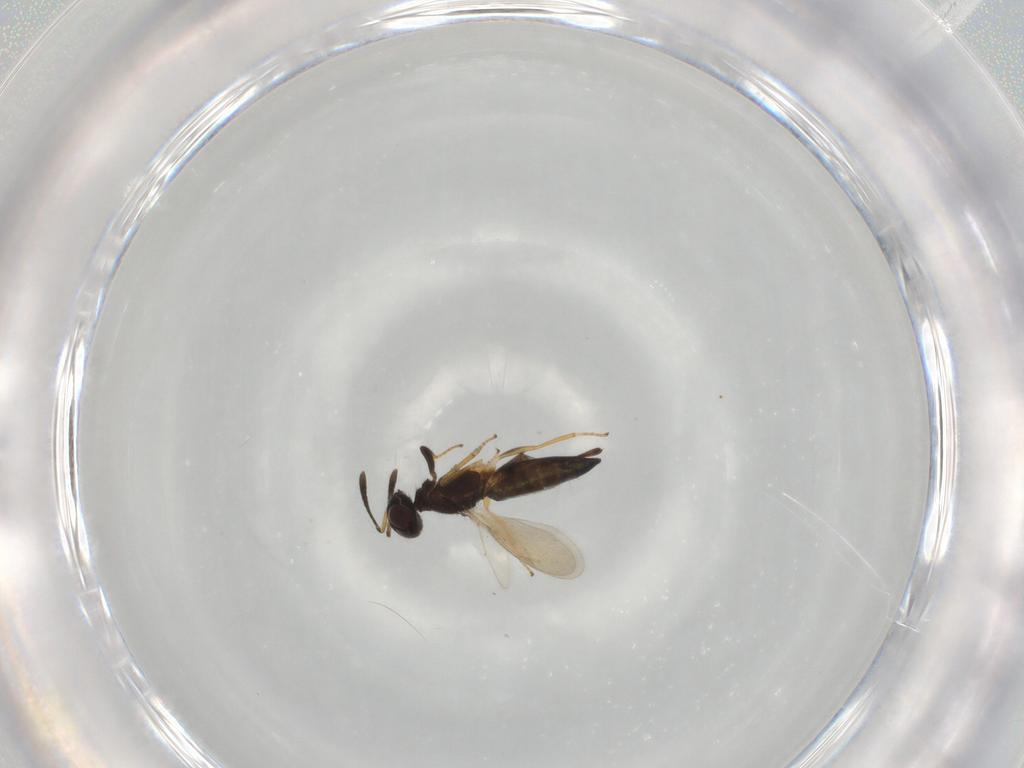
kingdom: Animalia
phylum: Arthropoda
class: Insecta
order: Hymenoptera
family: Eupelmidae
